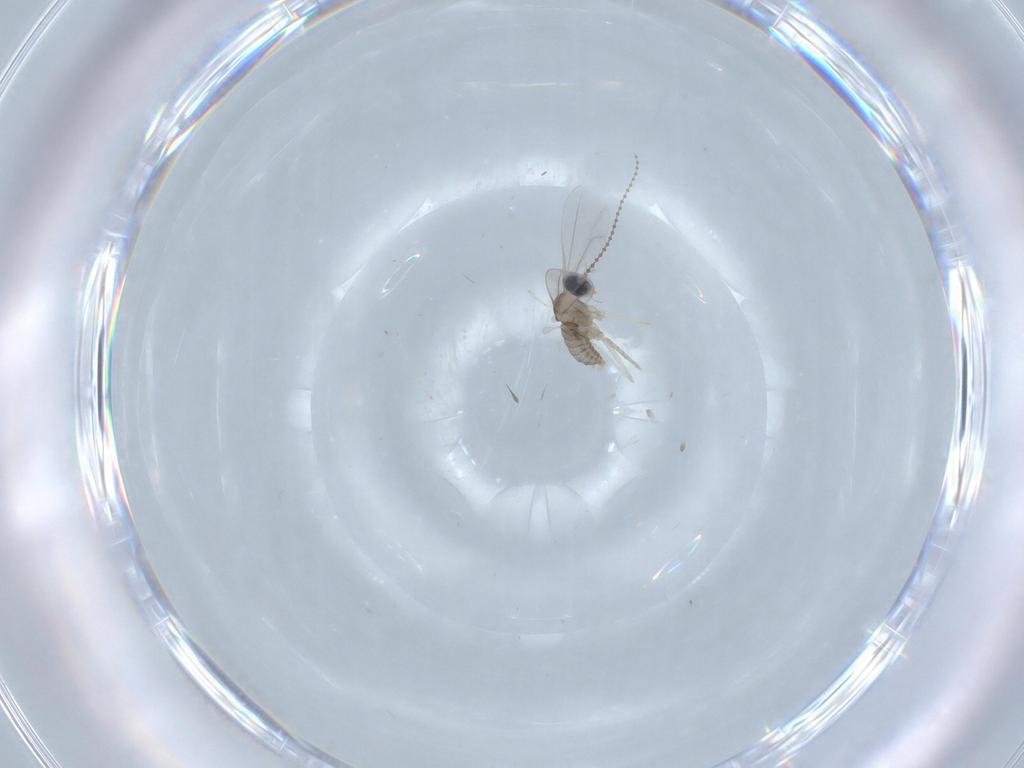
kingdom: Animalia
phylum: Arthropoda
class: Insecta
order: Diptera
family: Cecidomyiidae
